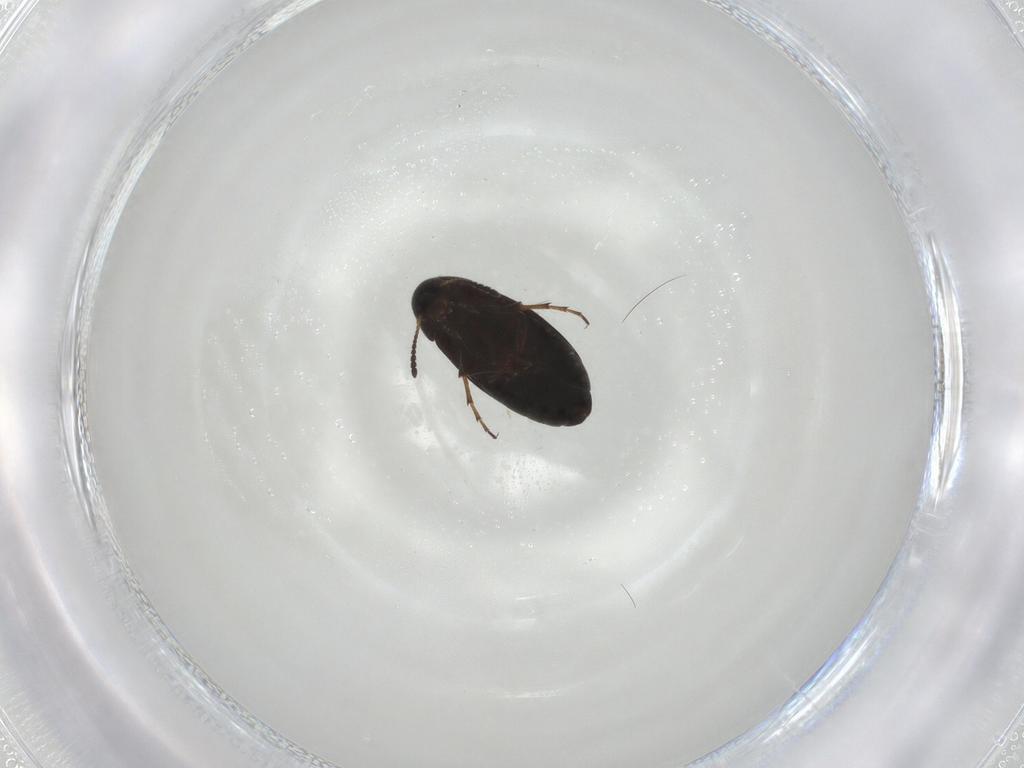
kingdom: Animalia
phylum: Arthropoda
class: Insecta
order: Coleoptera
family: Scraptiidae
